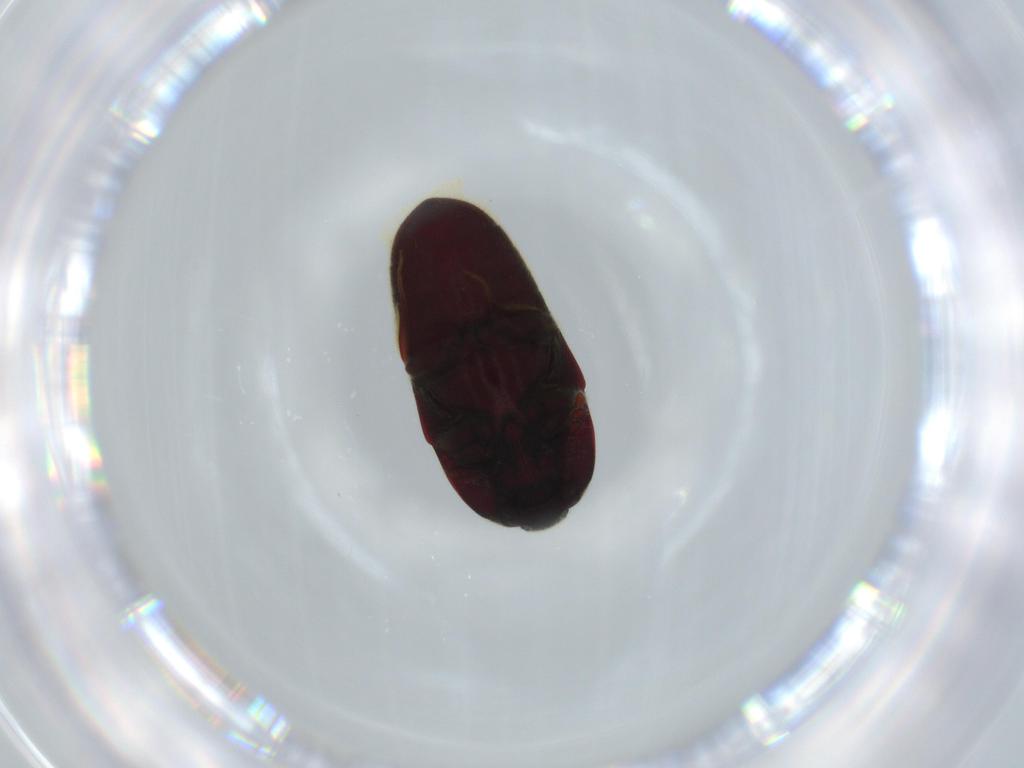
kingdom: Animalia
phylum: Arthropoda
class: Insecta
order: Coleoptera
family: Throscidae
